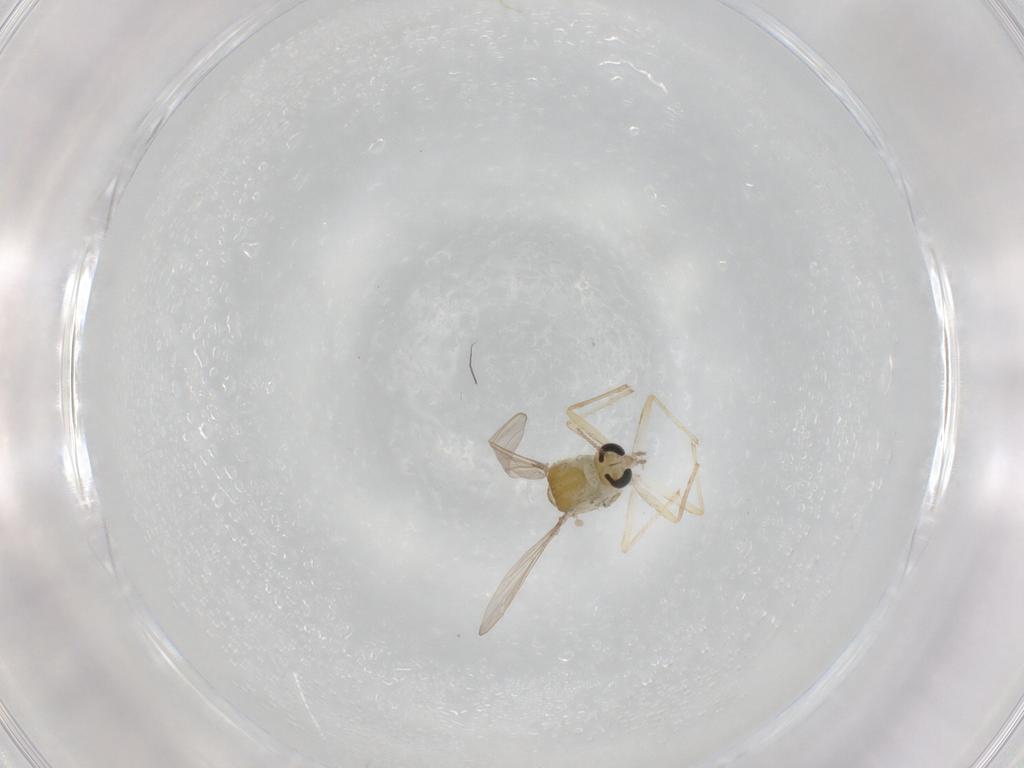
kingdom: Animalia
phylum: Arthropoda
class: Insecta
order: Diptera
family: Chironomidae
